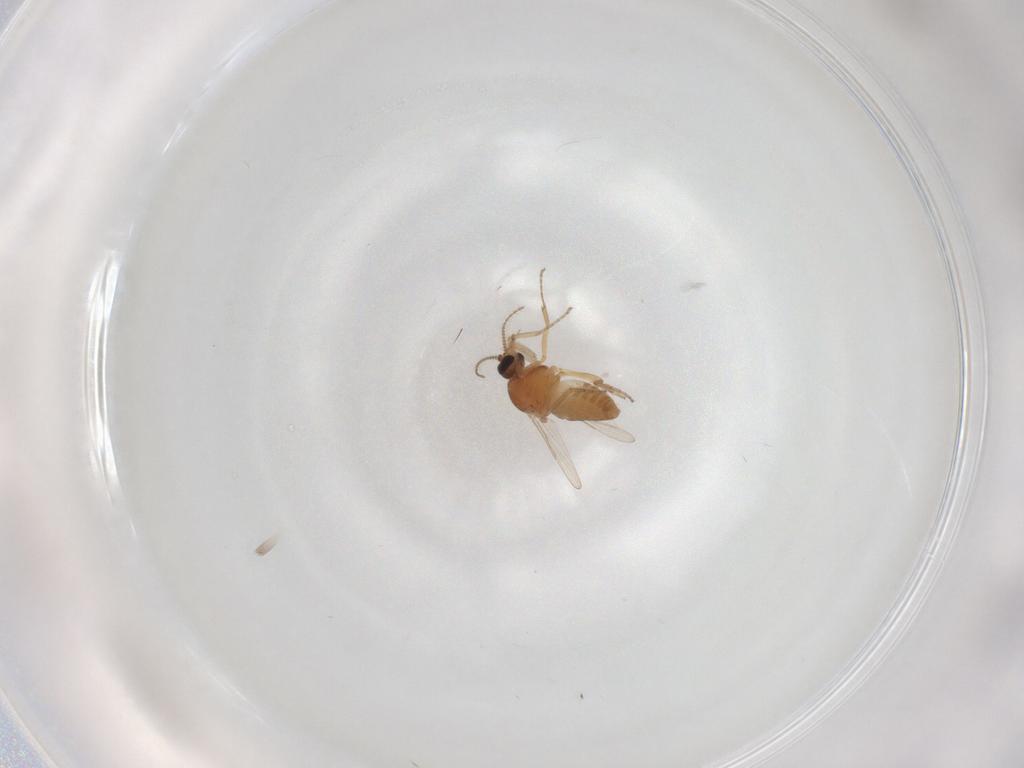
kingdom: Animalia
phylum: Arthropoda
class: Insecta
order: Diptera
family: Ceratopogonidae
